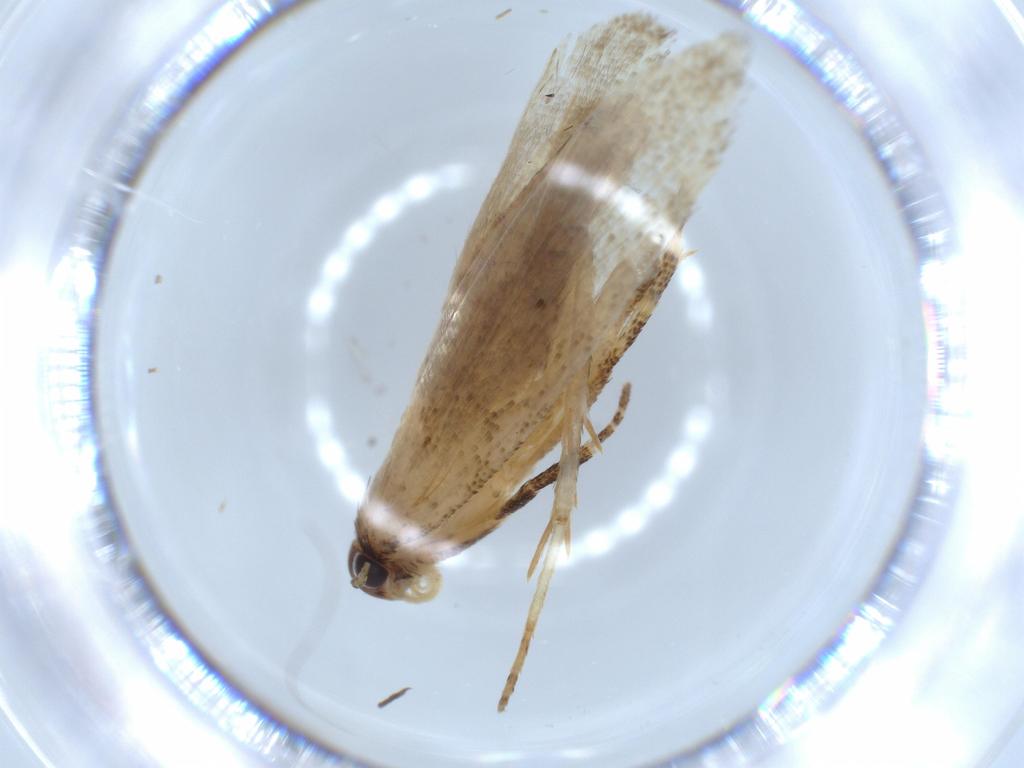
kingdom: Animalia
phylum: Arthropoda
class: Insecta
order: Lepidoptera
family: Gelechiidae
